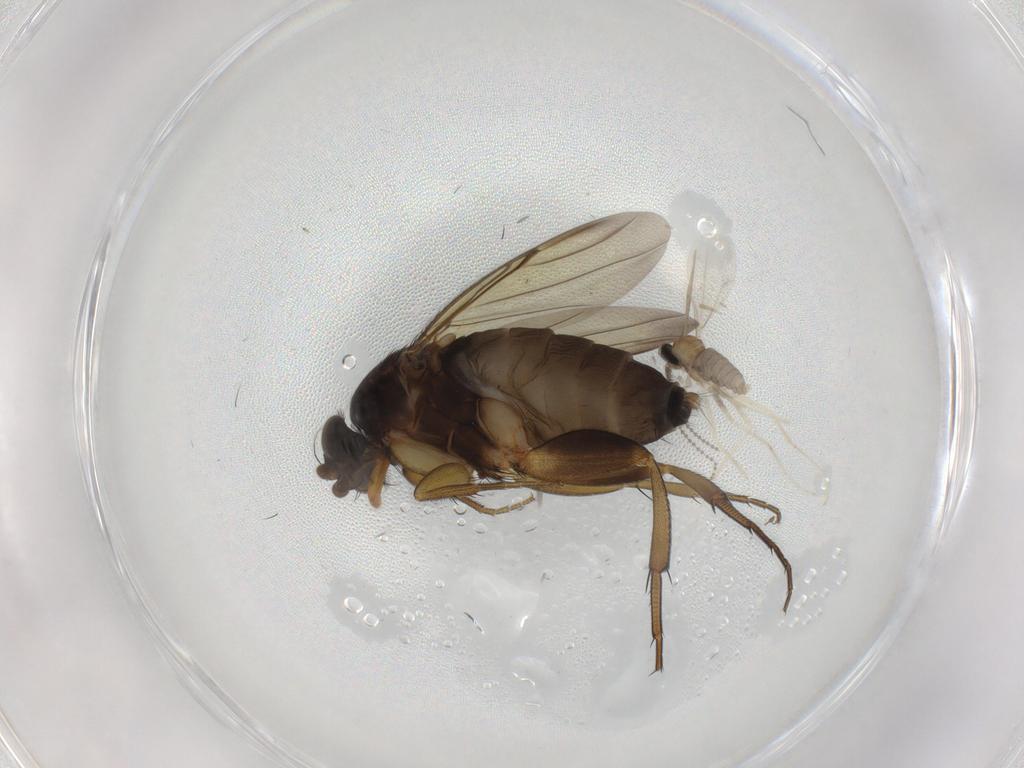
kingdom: Animalia
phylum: Arthropoda
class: Insecta
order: Diptera
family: Cecidomyiidae
